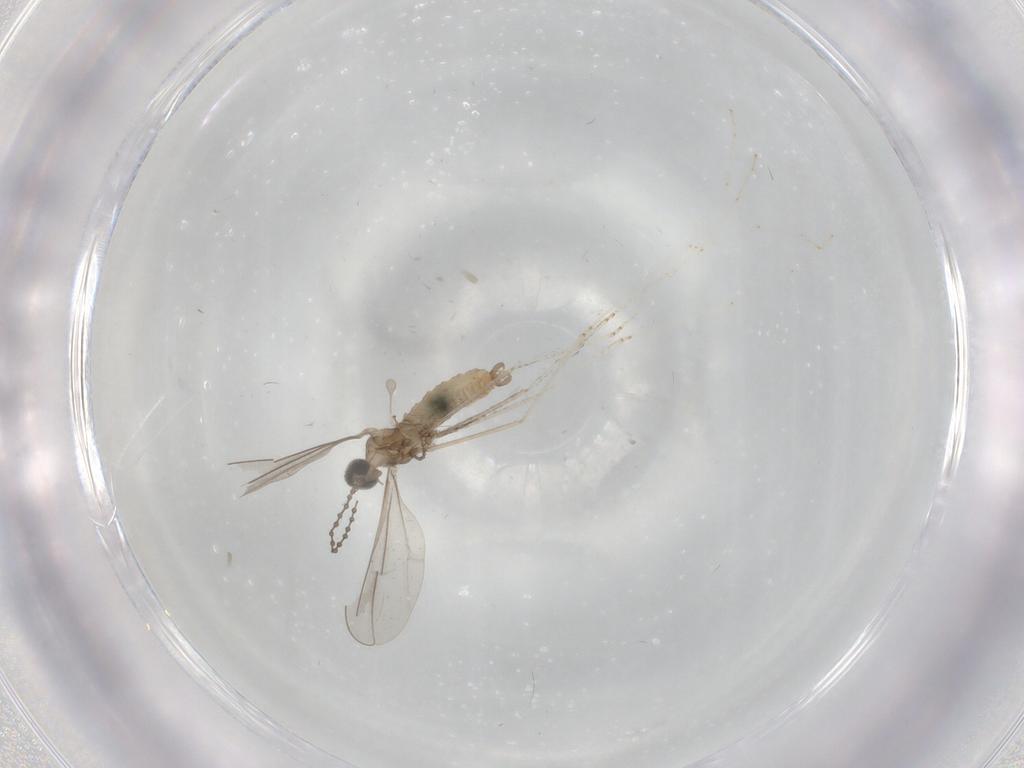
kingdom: Animalia
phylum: Arthropoda
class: Insecta
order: Diptera
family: Cecidomyiidae
